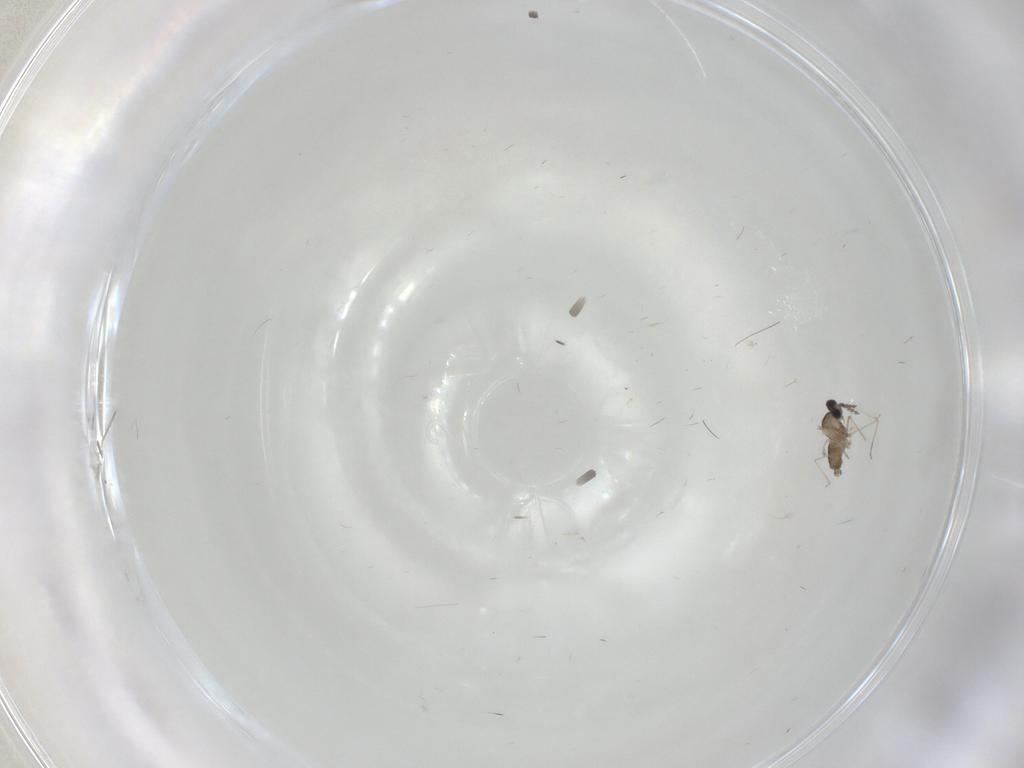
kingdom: Animalia
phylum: Arthropoda
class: Insecta
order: Diptera
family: Cecidomyiidae
